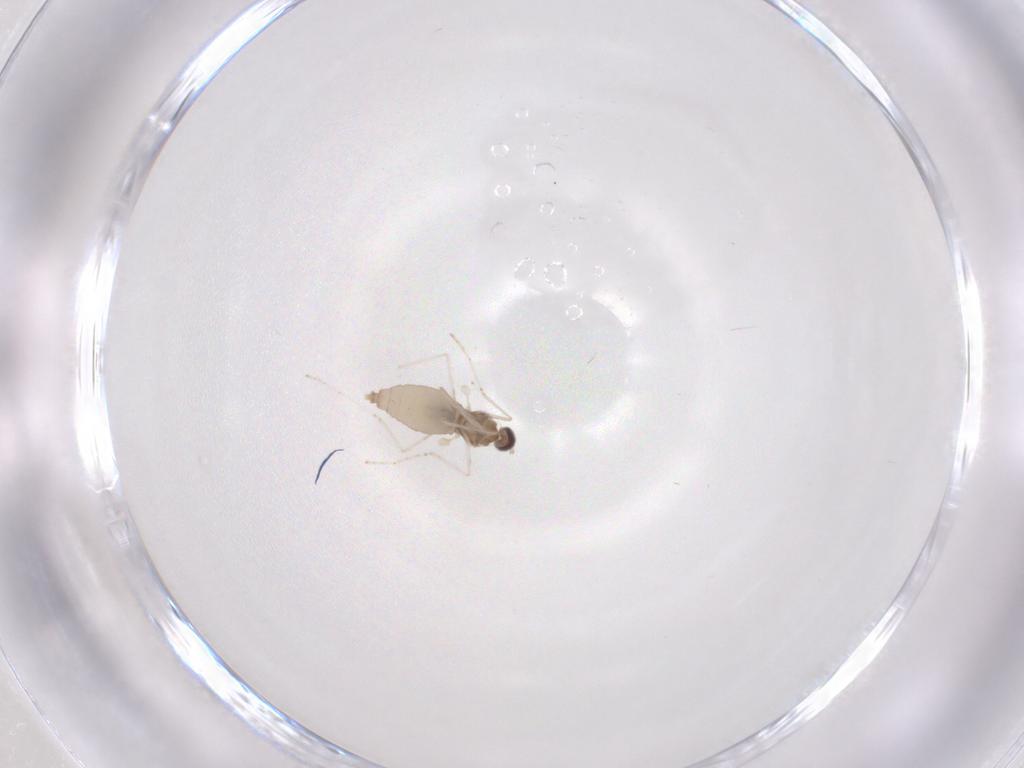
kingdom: Animalia
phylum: Arthropoda
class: Insecta
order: Diptera
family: Cecidomyiidae
